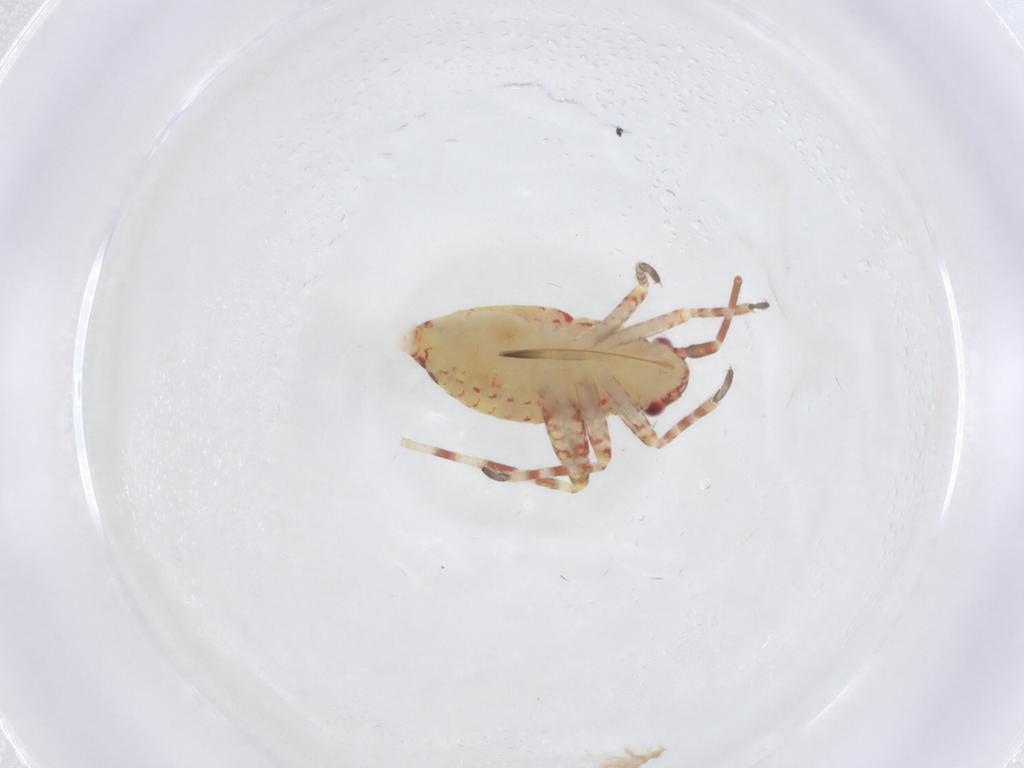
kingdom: Animalia
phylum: Arthropoda
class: Insecta
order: Hemiptera
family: Miridae
